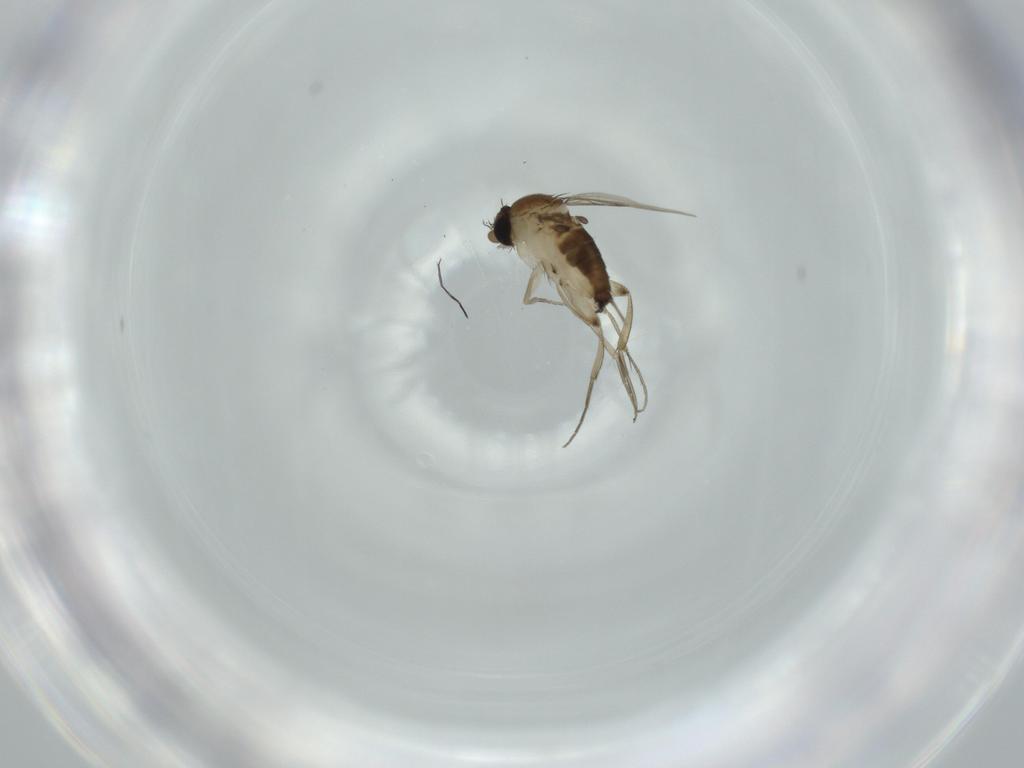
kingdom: Animalia
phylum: Arthropoda
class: Insecta
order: Diptera
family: Phoridae
